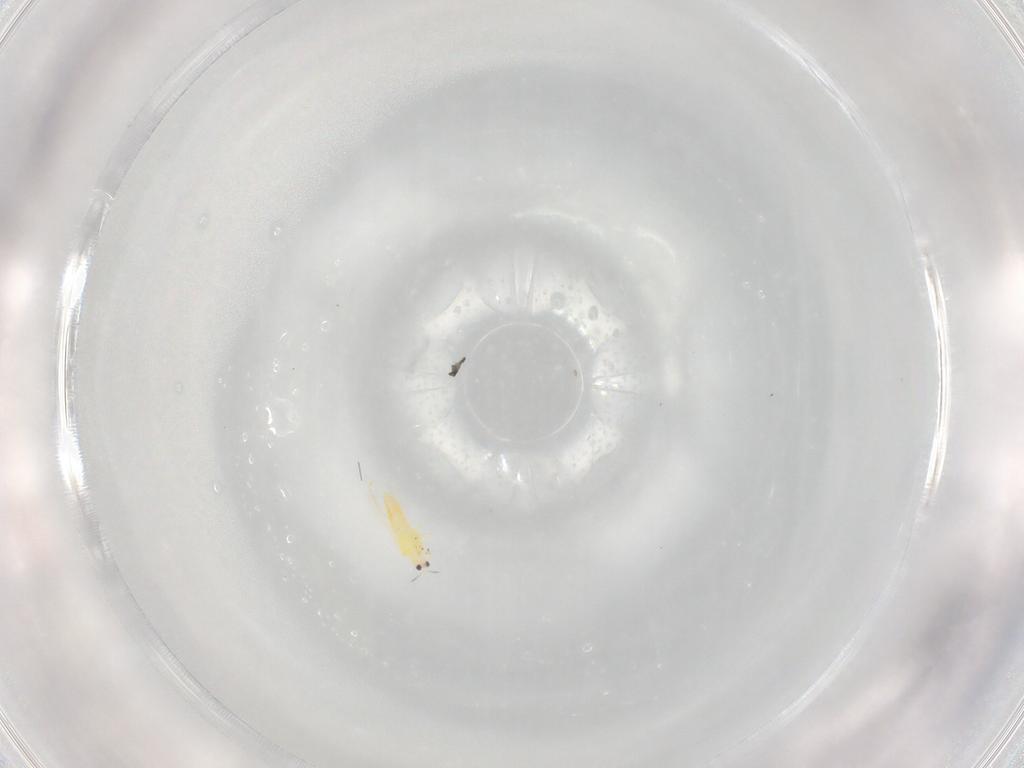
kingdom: Animalia
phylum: Arthropoda
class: Insecta
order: Thysanoptera
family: Thripidae
